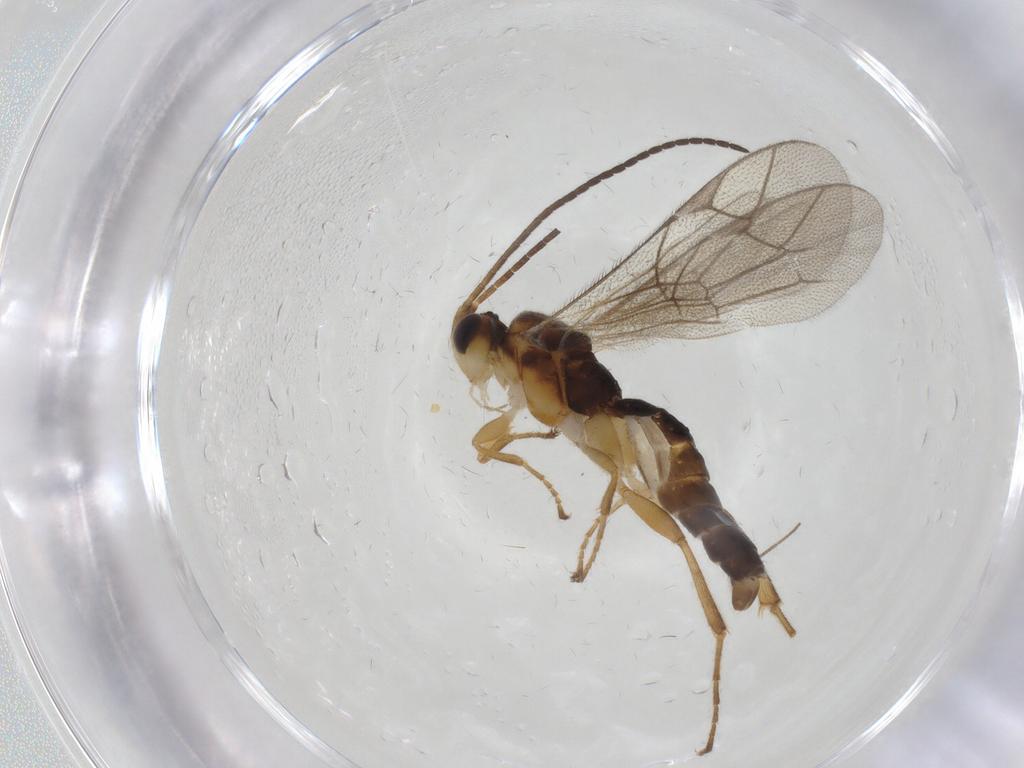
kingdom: Animalia
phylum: Arthropoda
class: Insecta
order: Hymenoptera
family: Ichneumonidae
